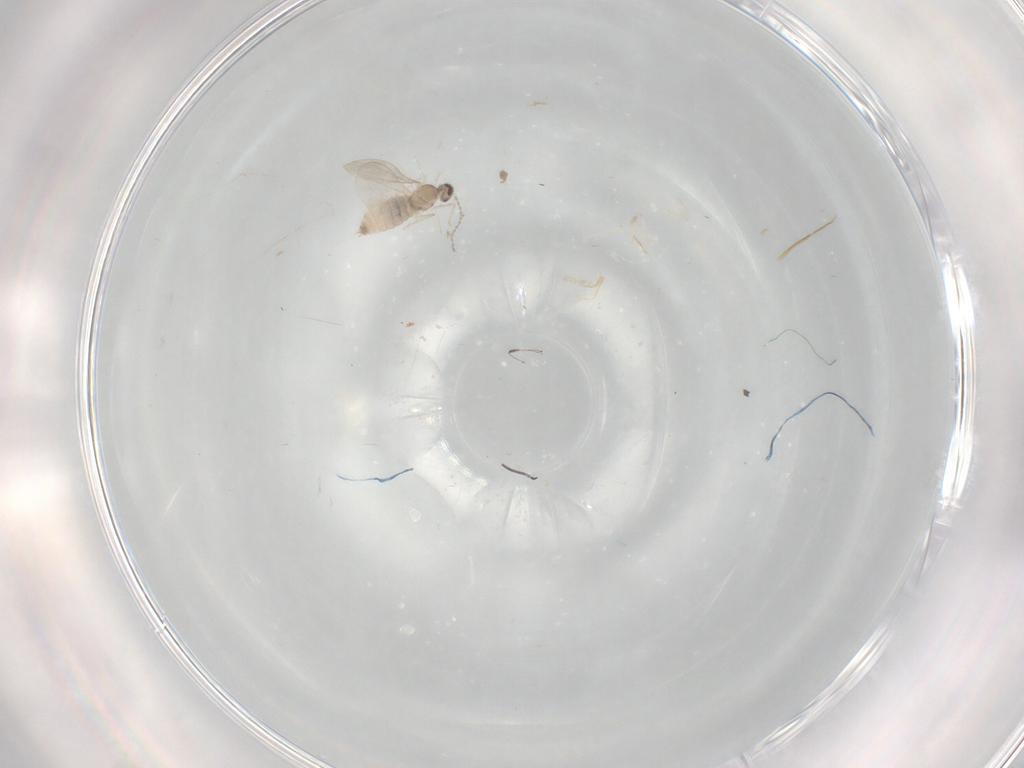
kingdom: Animalia
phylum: Arthropoda
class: Insecta
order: Diptera
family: Cecidomyiidae
